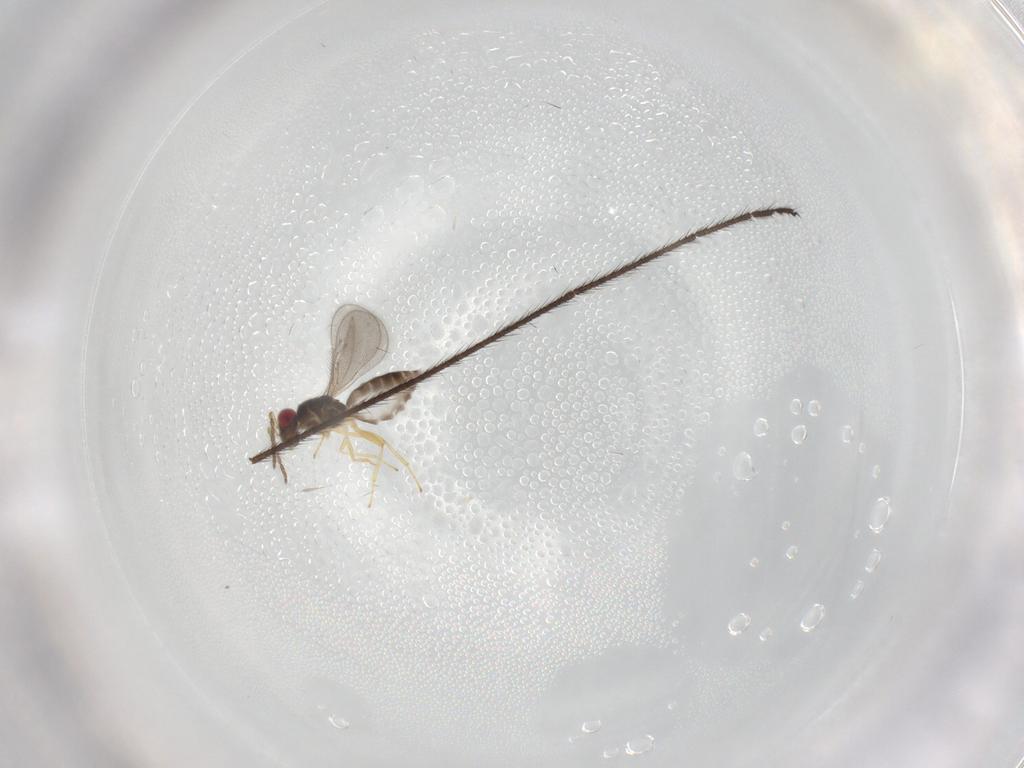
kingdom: Animalia
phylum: Arthropoda
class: Insecta
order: Hymenoptera
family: Eulophidae
